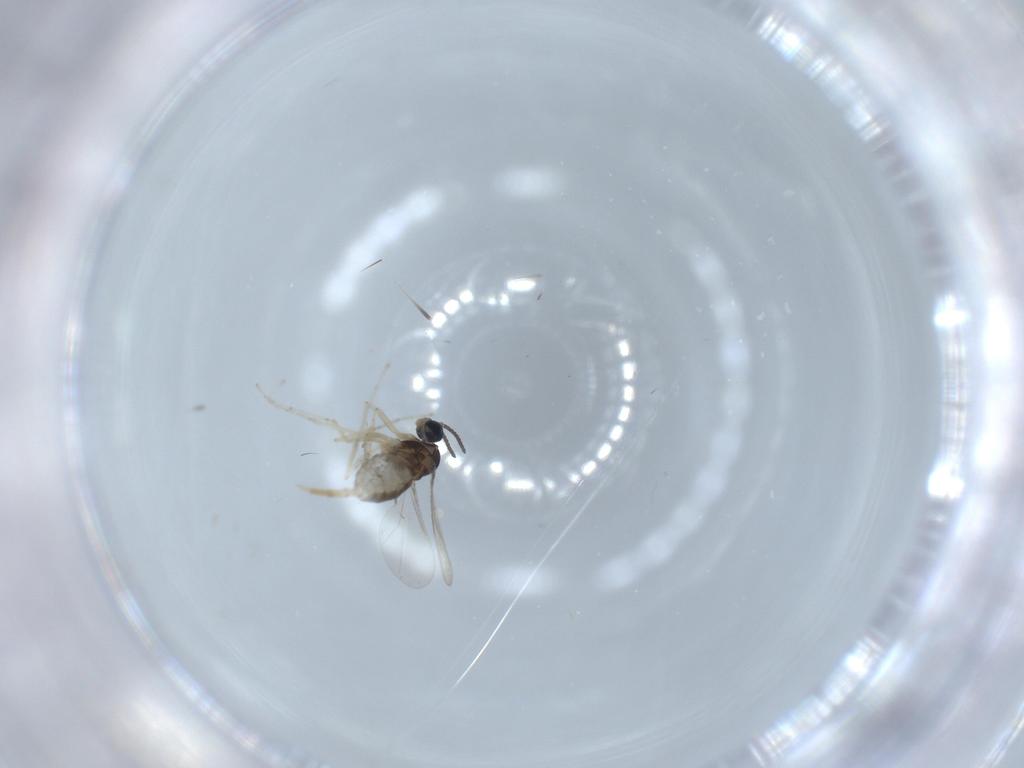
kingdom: Animalia
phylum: Arthropoda
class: Insecta
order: Diptera
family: Cecidomyiidae
